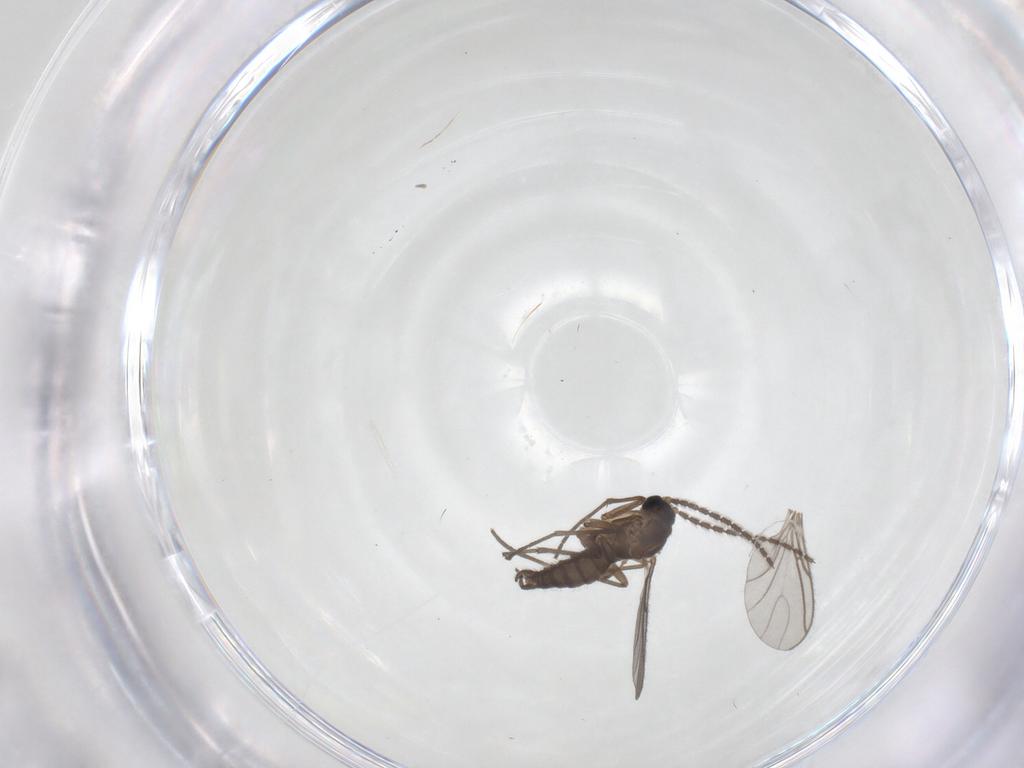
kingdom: Animalia
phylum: Arthropoda
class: Insecta
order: Diptera
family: Sciaridae
